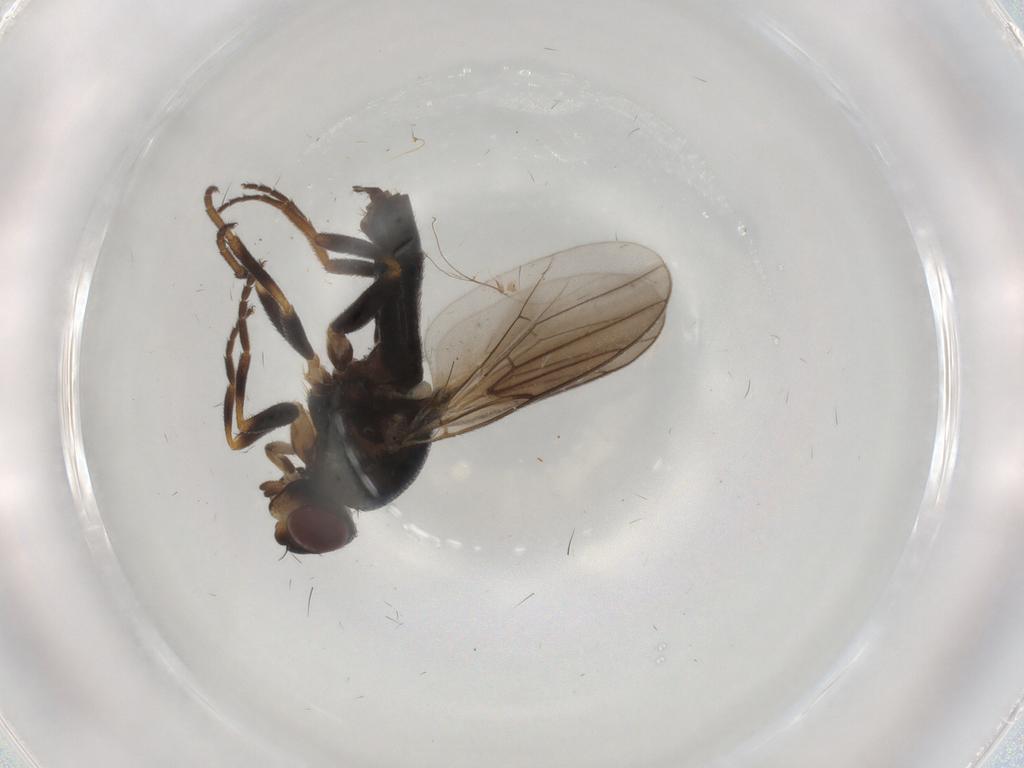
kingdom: Animalia
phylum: Arthropoda
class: Insecta
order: Diptera
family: Chloropidae
